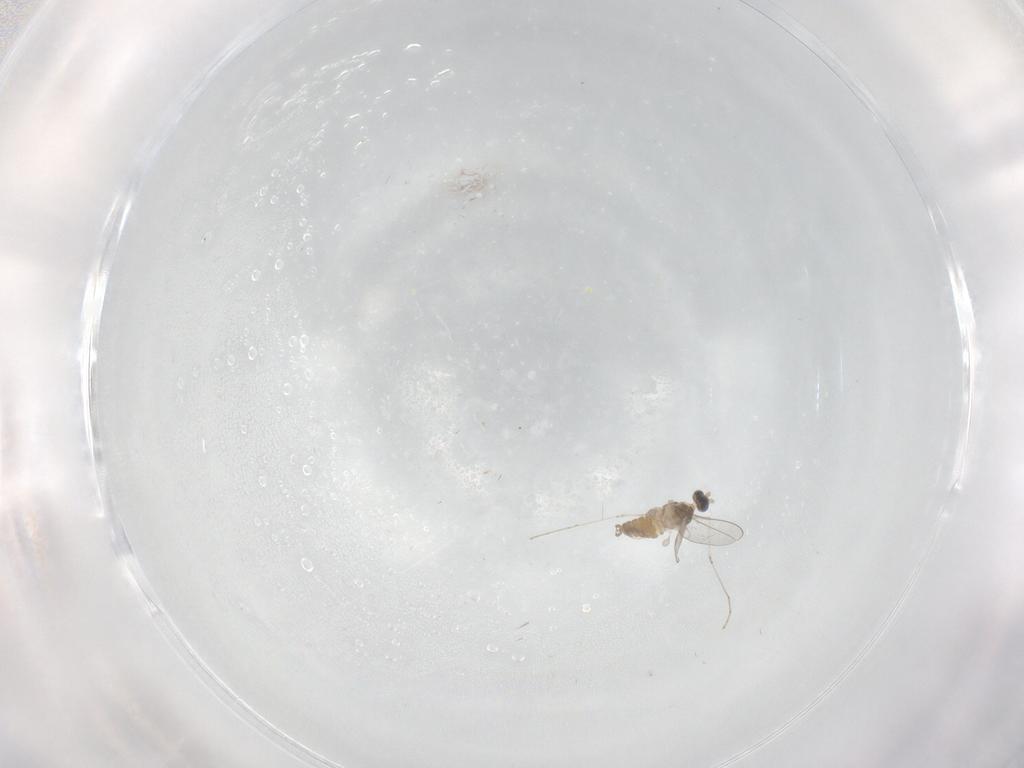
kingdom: Animalia
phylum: Arthropoda
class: Insecta
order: Diptera
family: Cecidomyiidae
